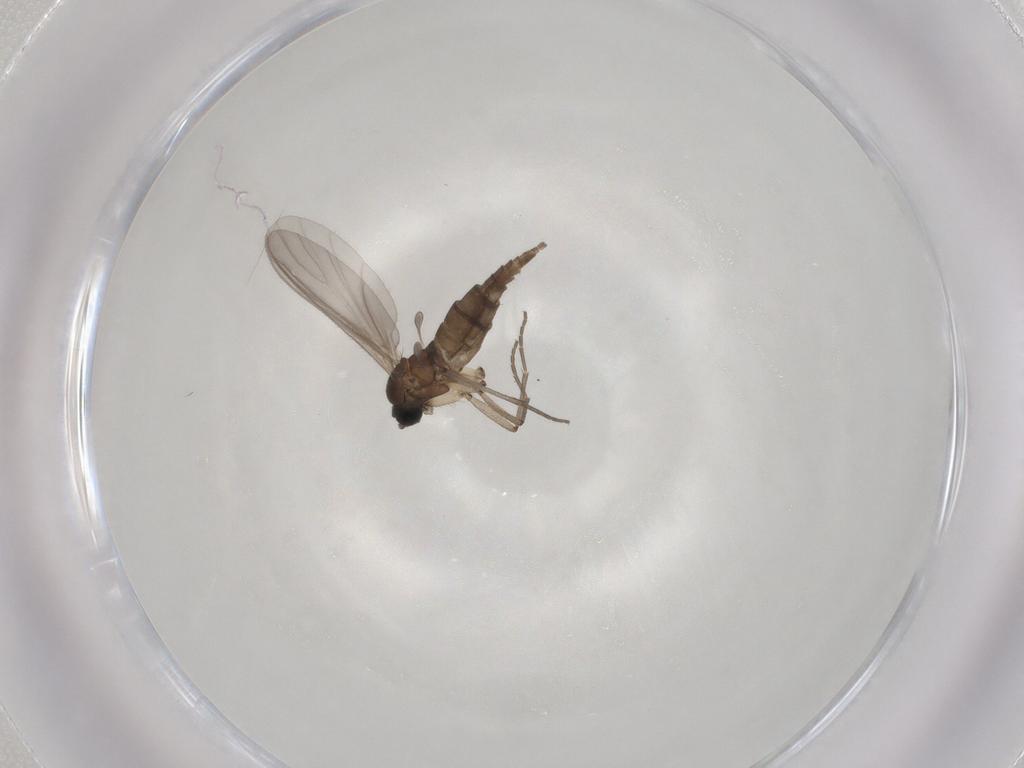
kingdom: Animalia
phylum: Arthropoda
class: Insecta
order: Diptera
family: Sciaridae
